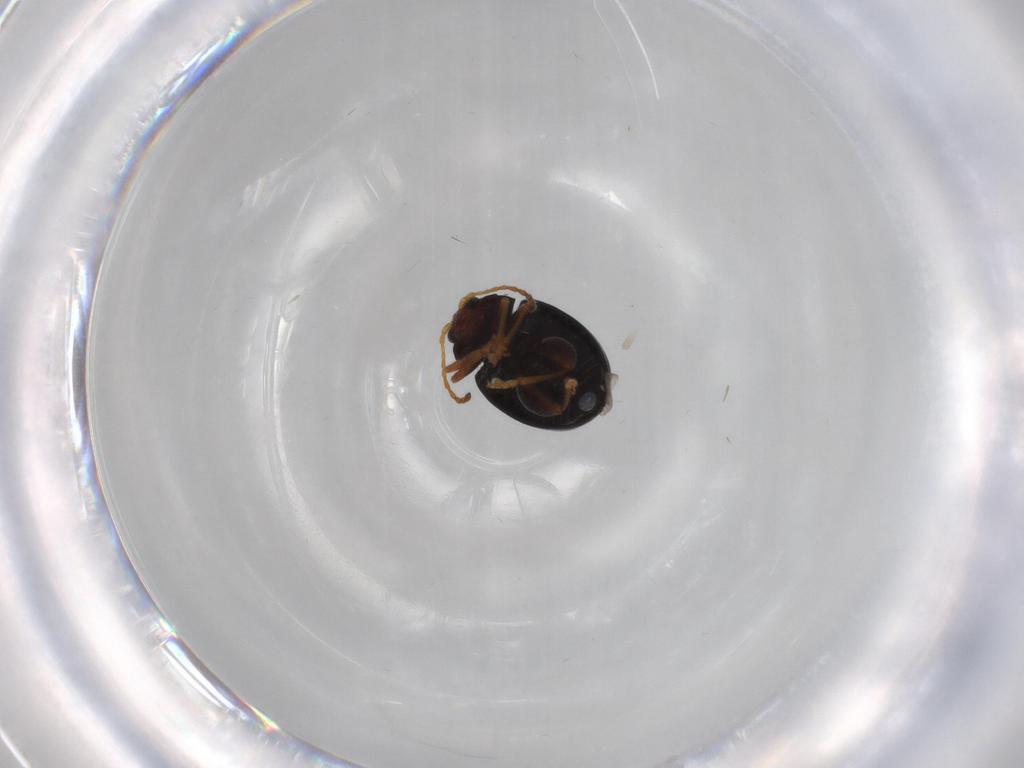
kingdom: Animalia
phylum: Arthropoda
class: Insecta
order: Coleoptera
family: Chrysomelidae
